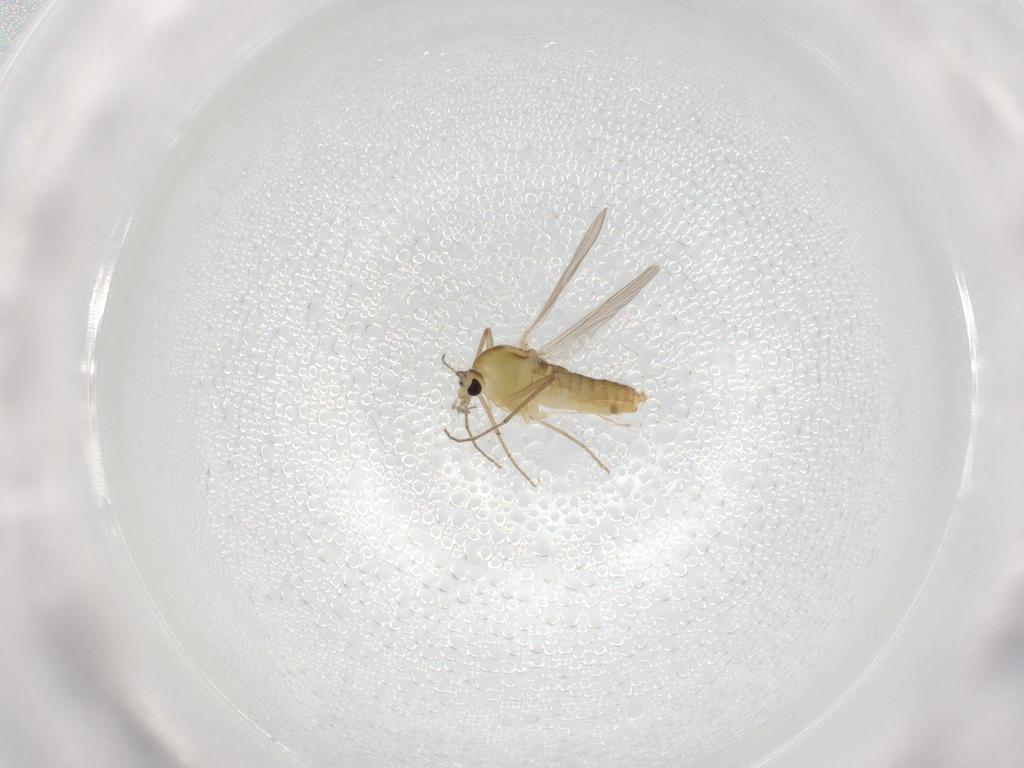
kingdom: Animalia
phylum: Arthropoda
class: Insecta
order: Diptera
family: Chironomidae
